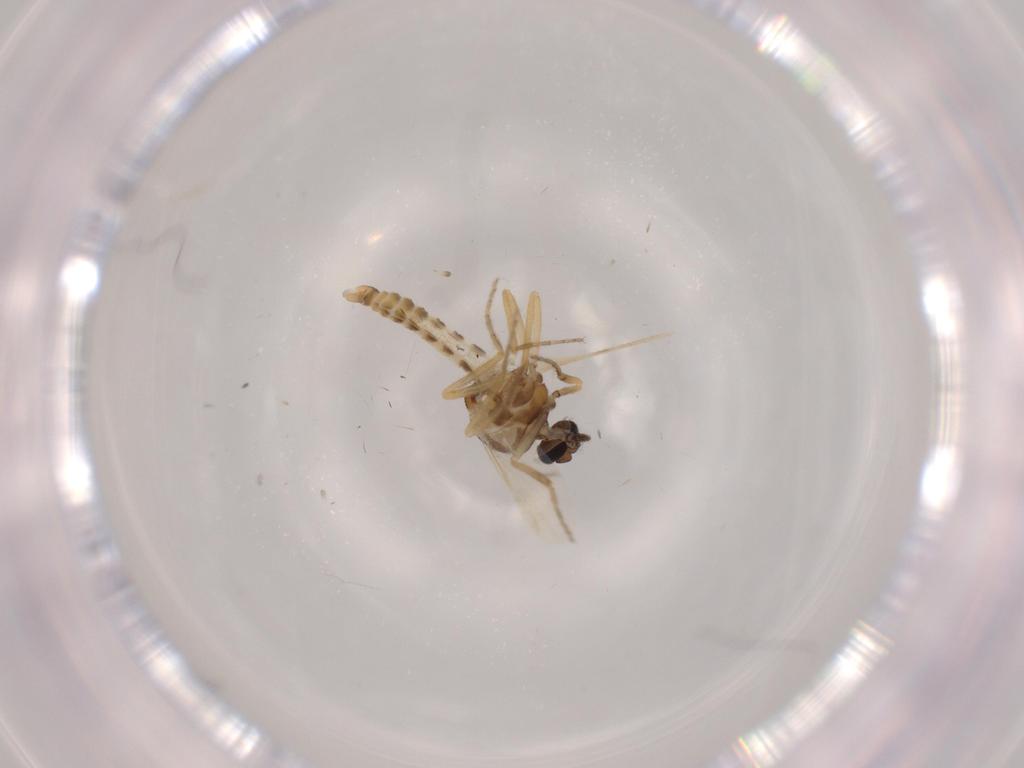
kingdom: Animalia
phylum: Arthropoda
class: Insecta
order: Diptera
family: Ceratopogonidae
